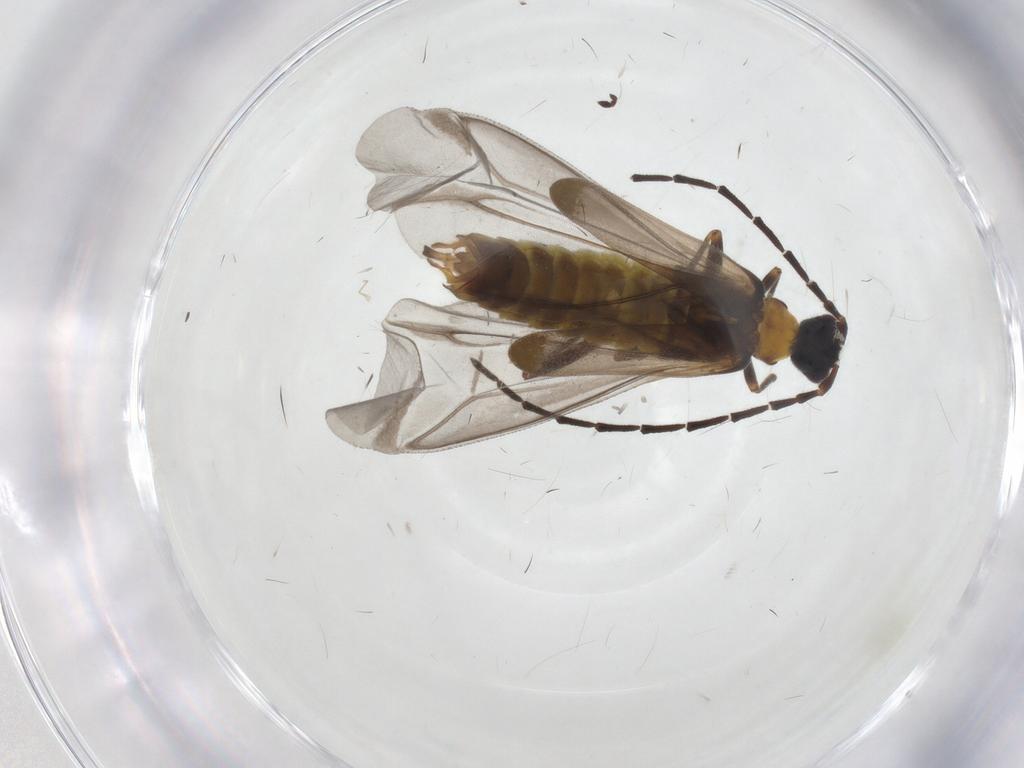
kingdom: Animalia
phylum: Arthropoda
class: Insecta
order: Coleoptera
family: Cantharidae
